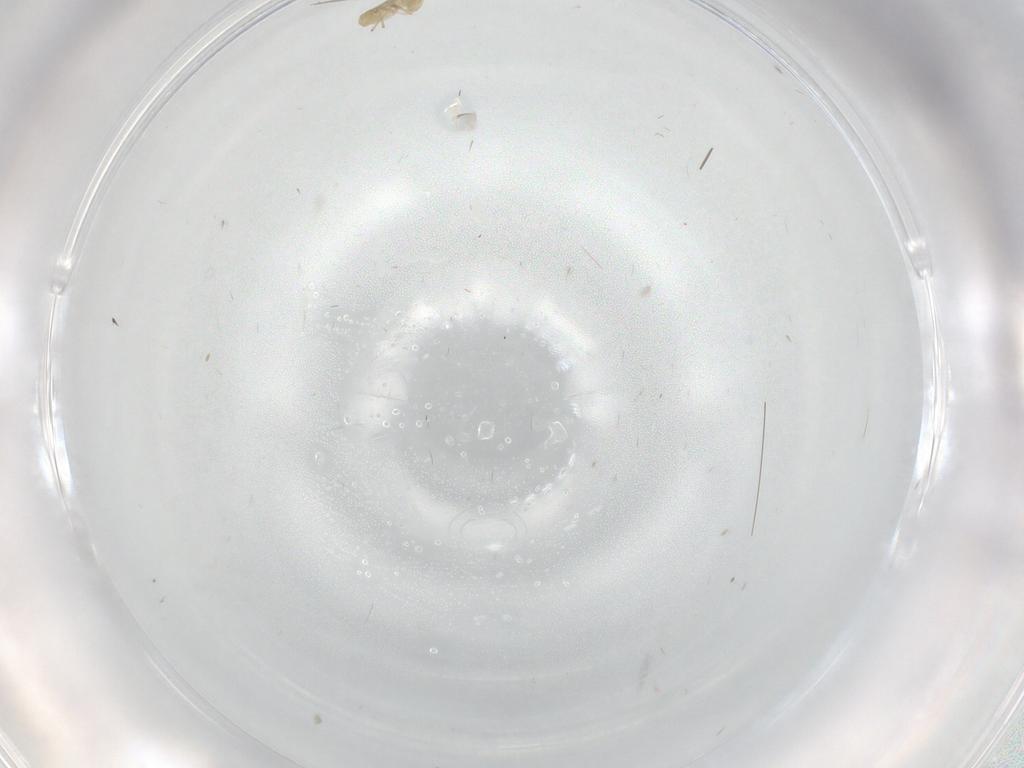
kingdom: Animalia
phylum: Arthropoda
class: Insecta
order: Diptera
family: Chironomidae
